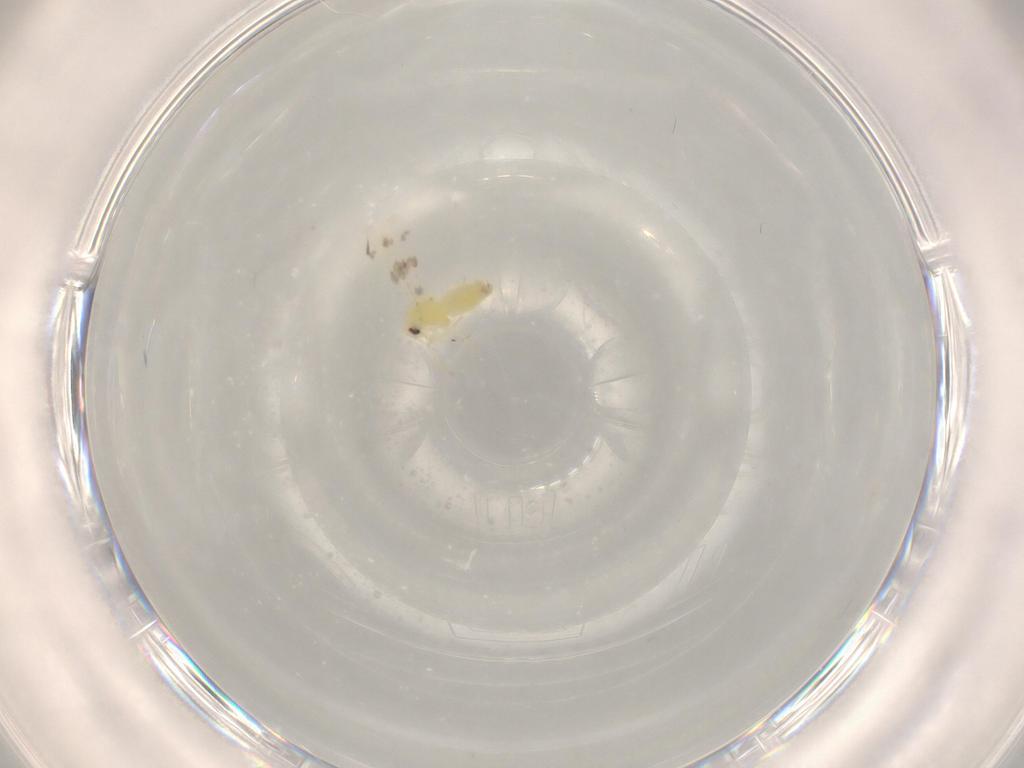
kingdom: Animalia
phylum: Arthropoda
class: Insecta
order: Hemiptera
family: Aleyrodidae
